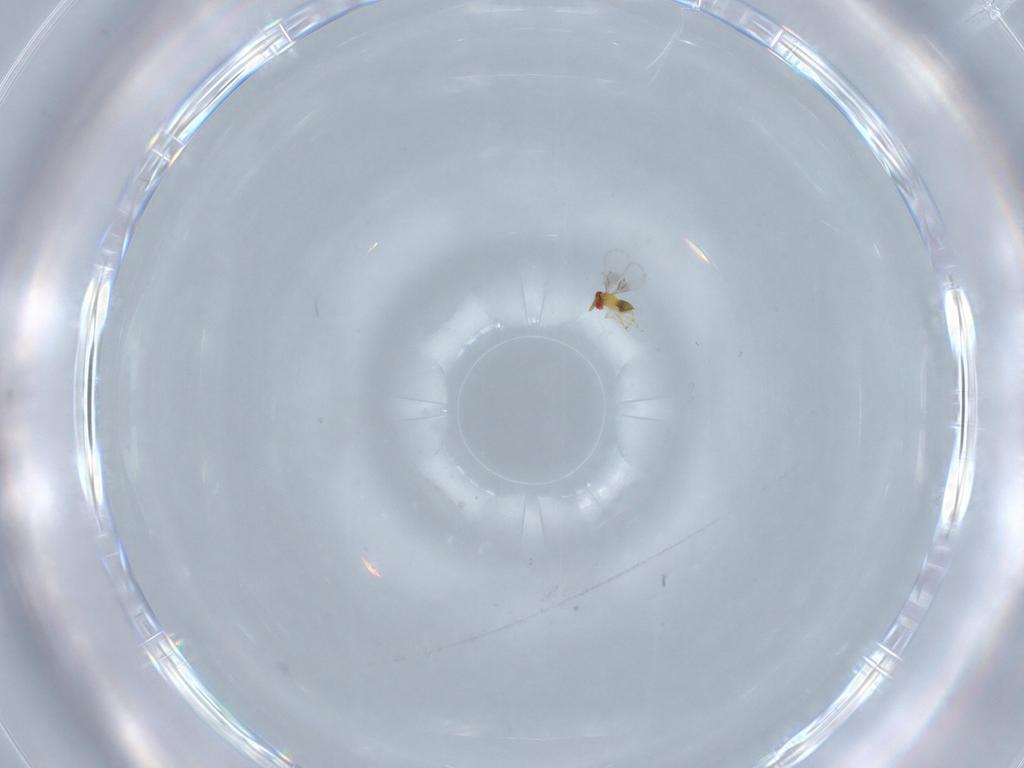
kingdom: Animalia
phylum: Arthropoda
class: Insecta
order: Hymenoptera
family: Trichogrammatidae
